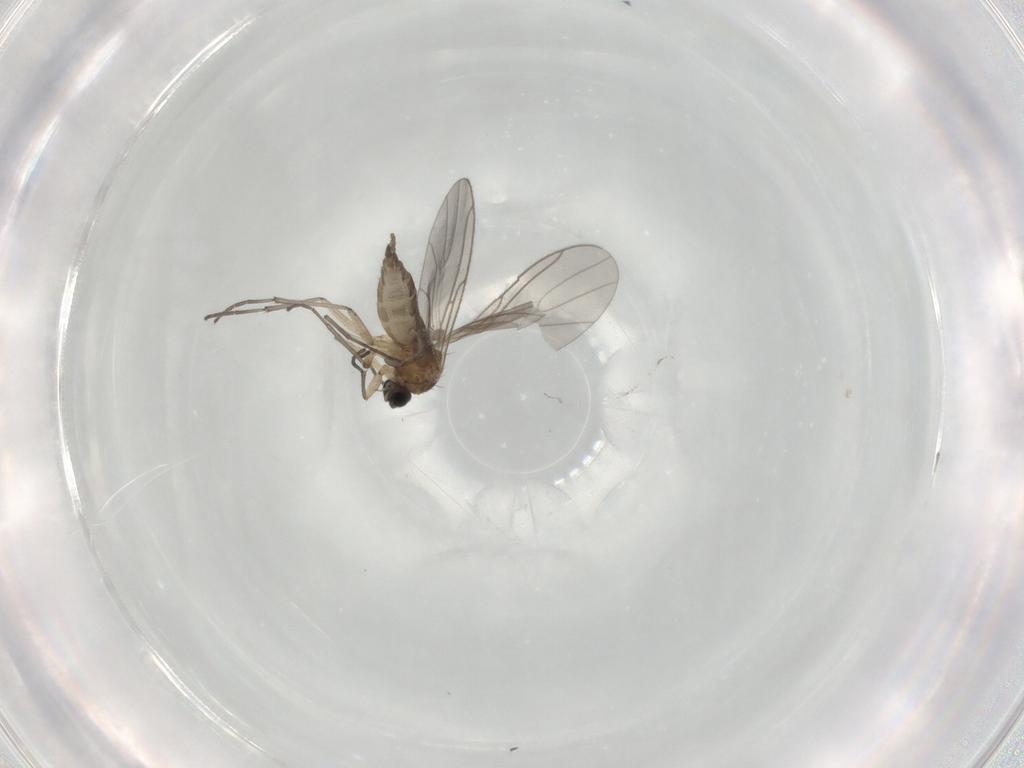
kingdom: Animalia
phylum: Arthropoda
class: Insecta
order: Diptera
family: Sciaridae
